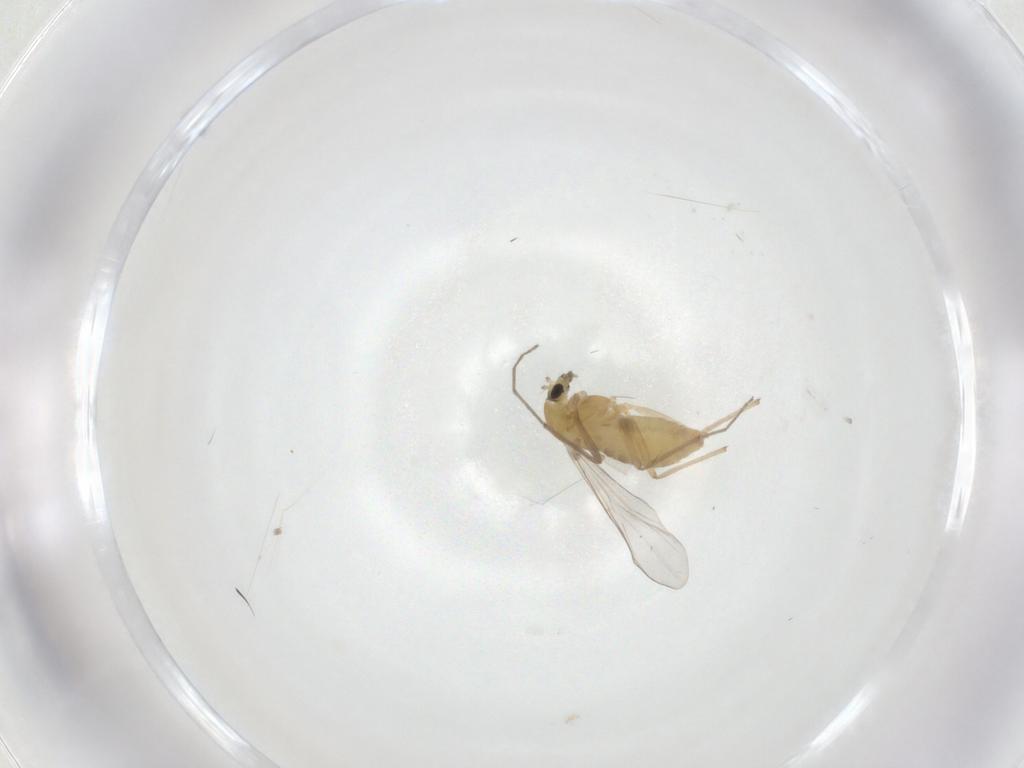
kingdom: Animalia
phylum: Arthropoda
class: Insecta
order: Diptera
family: Chironomidae
